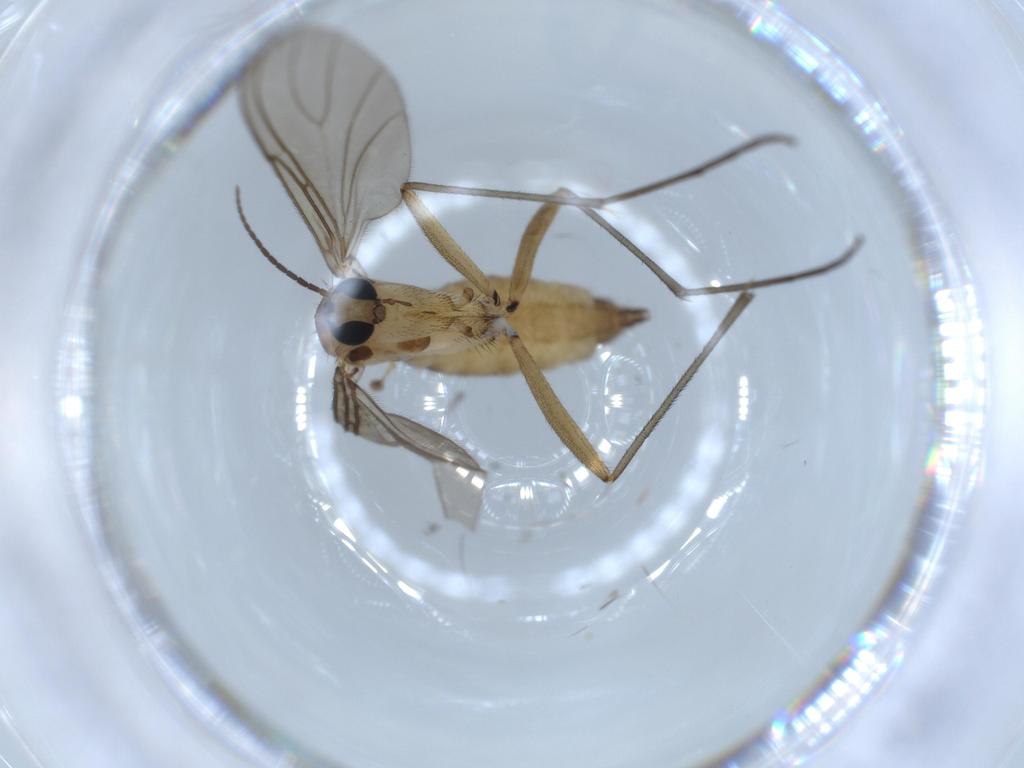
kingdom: Animalia
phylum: Arthropoda
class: Insecta
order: Diptera
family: Sciaridae
